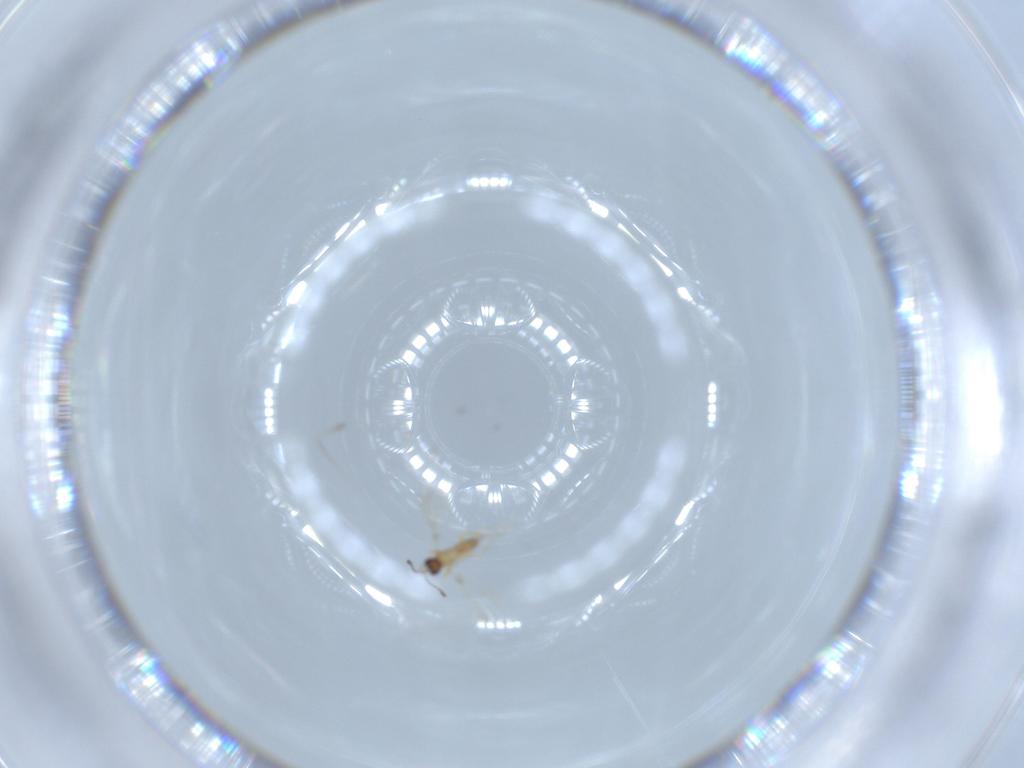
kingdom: Animalia
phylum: Arthropoda
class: Insecta
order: Hymenoptera
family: Mymaridae
